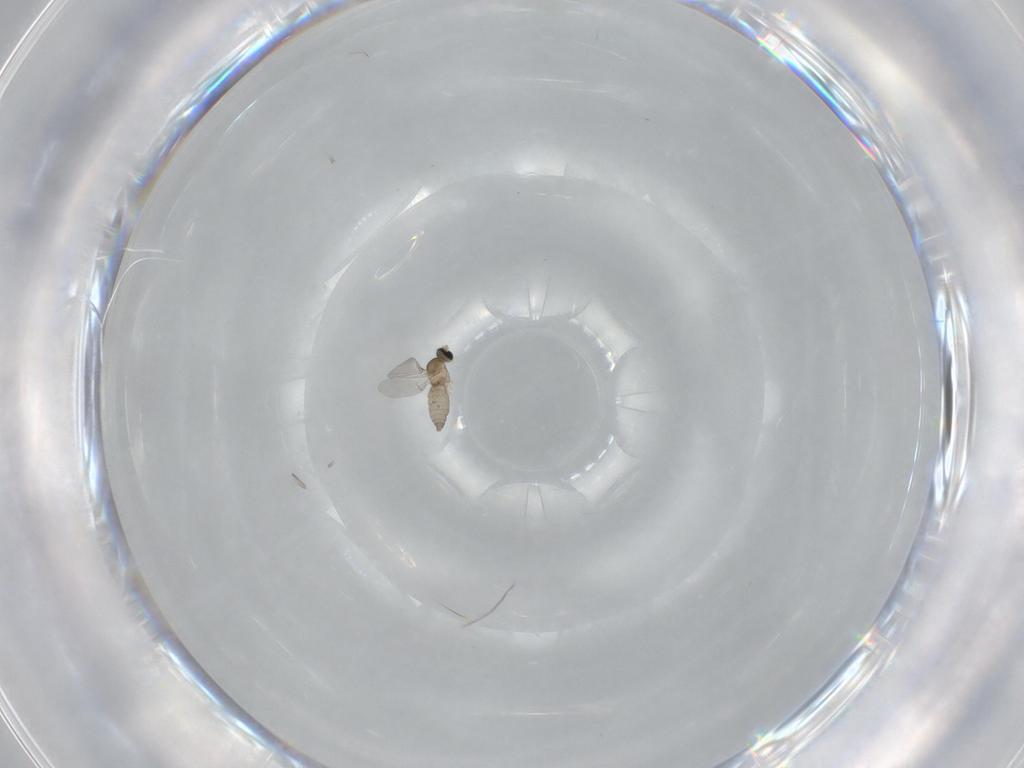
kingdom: Animalia
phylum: Arthropoda
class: Insecta
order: Diptera
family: Cecidomyiidae
